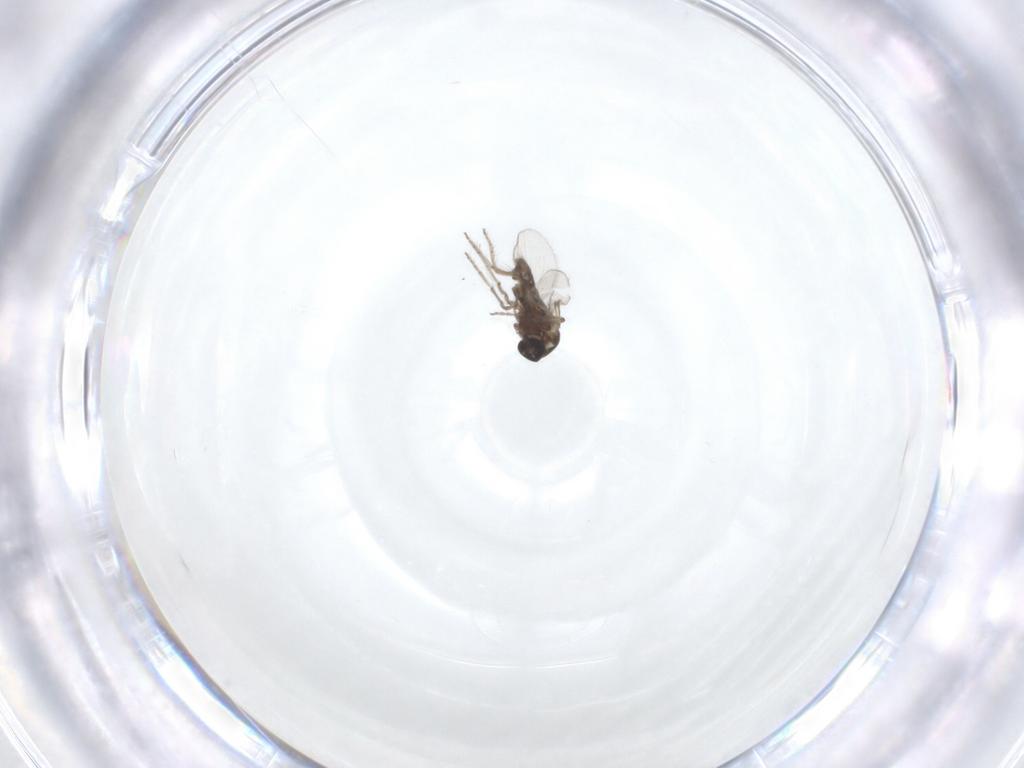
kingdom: Animalia
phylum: Arthropoda
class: Insecta
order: Diptera
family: Ceratopogonidae
